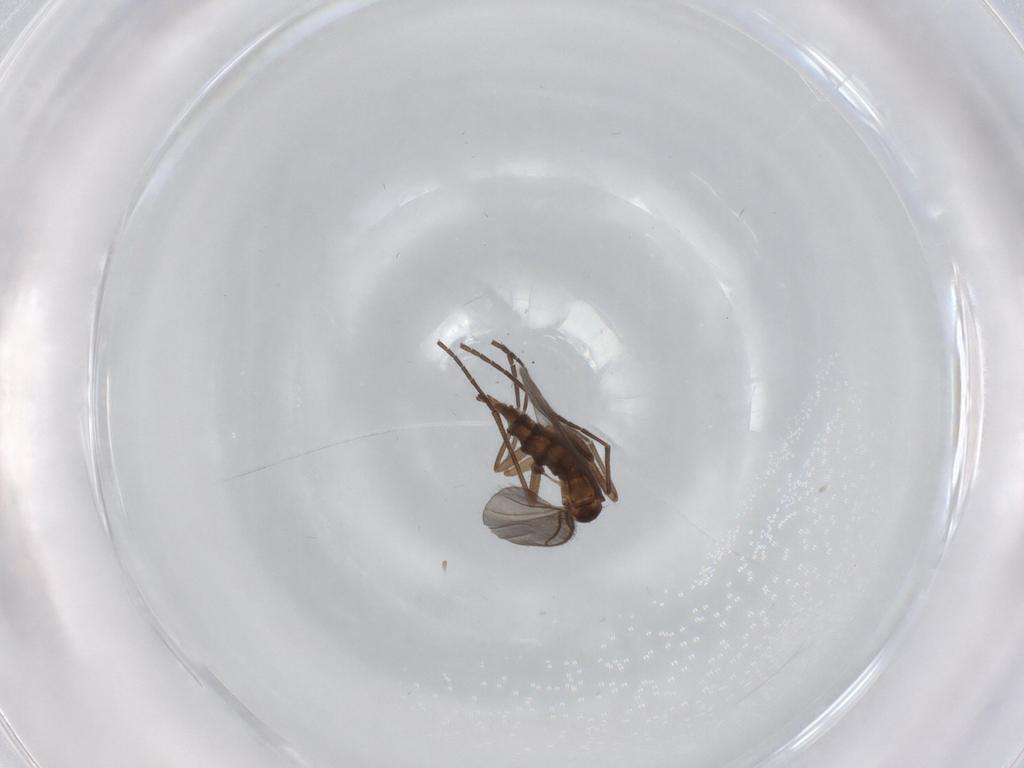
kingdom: Animalia
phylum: Arthropoda
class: Insecta
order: Diptera
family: Sciaridae
